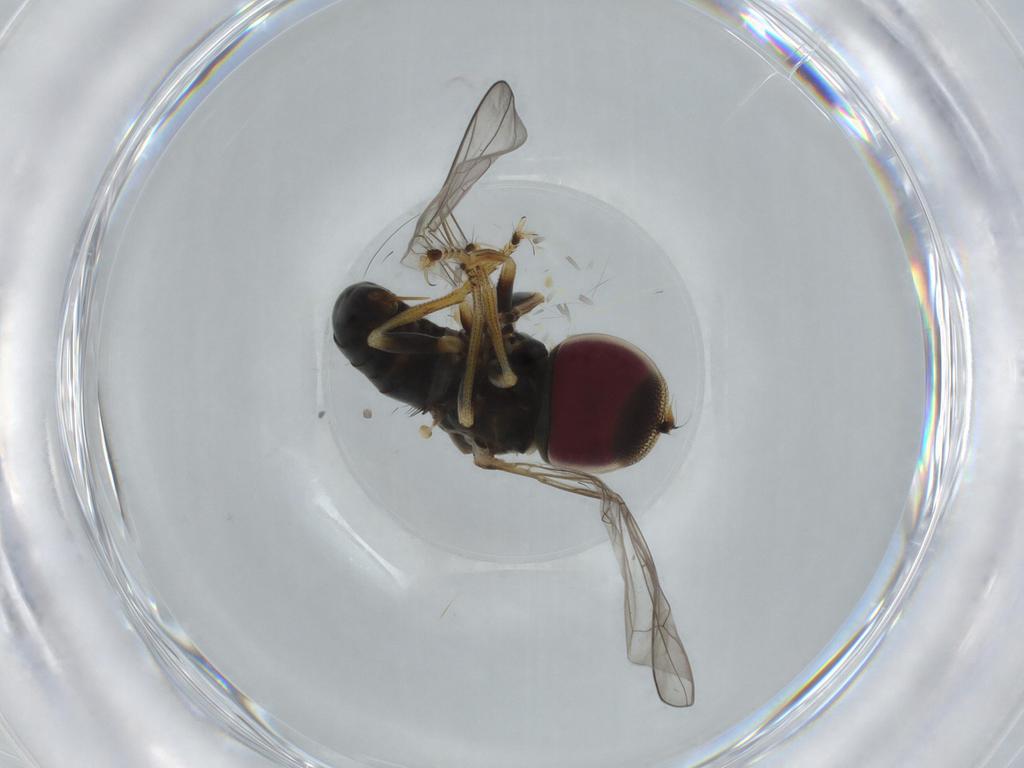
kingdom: Animalia
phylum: Arthropoda
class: Insecta
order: Diptera
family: Pipunculidae
